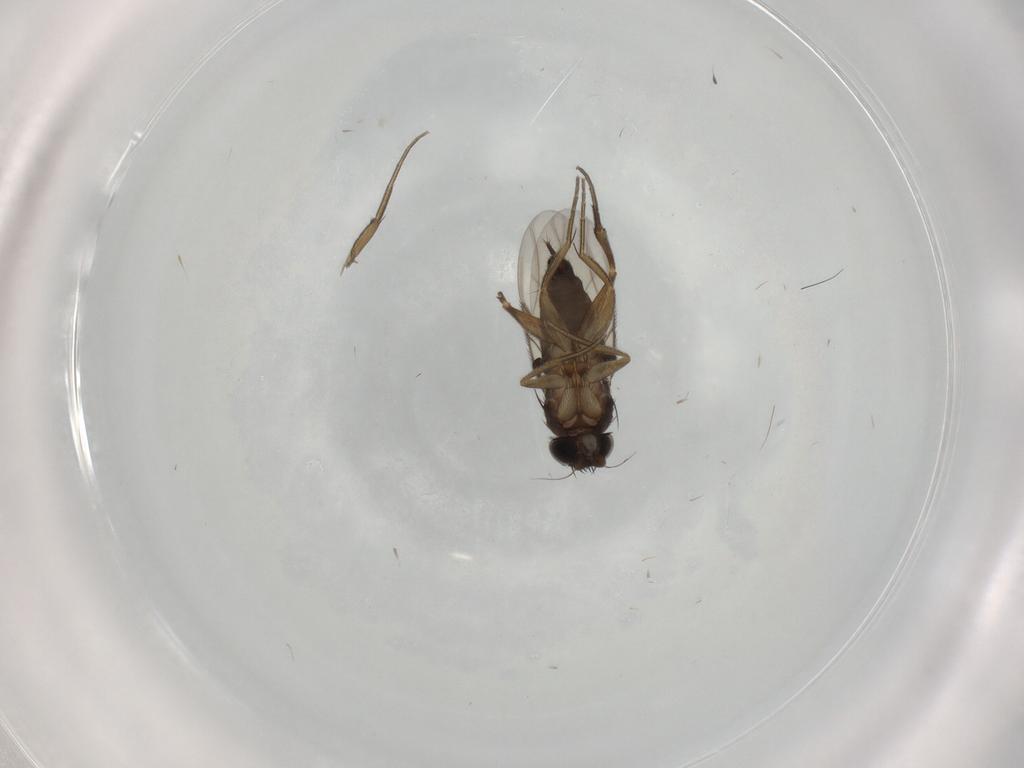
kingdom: Animalia
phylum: Arthropoda
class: Insecta
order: Diptera
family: Phoridae
